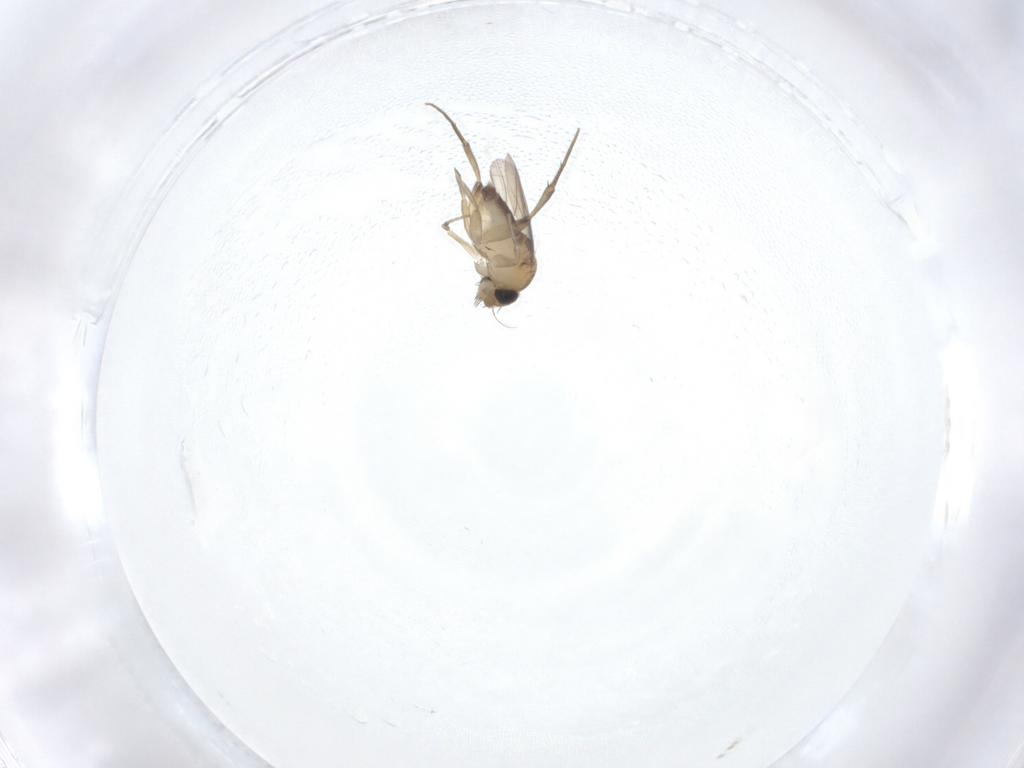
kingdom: Animalia
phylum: Arthropoda
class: Insecta
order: Diptera
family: Phoridae
